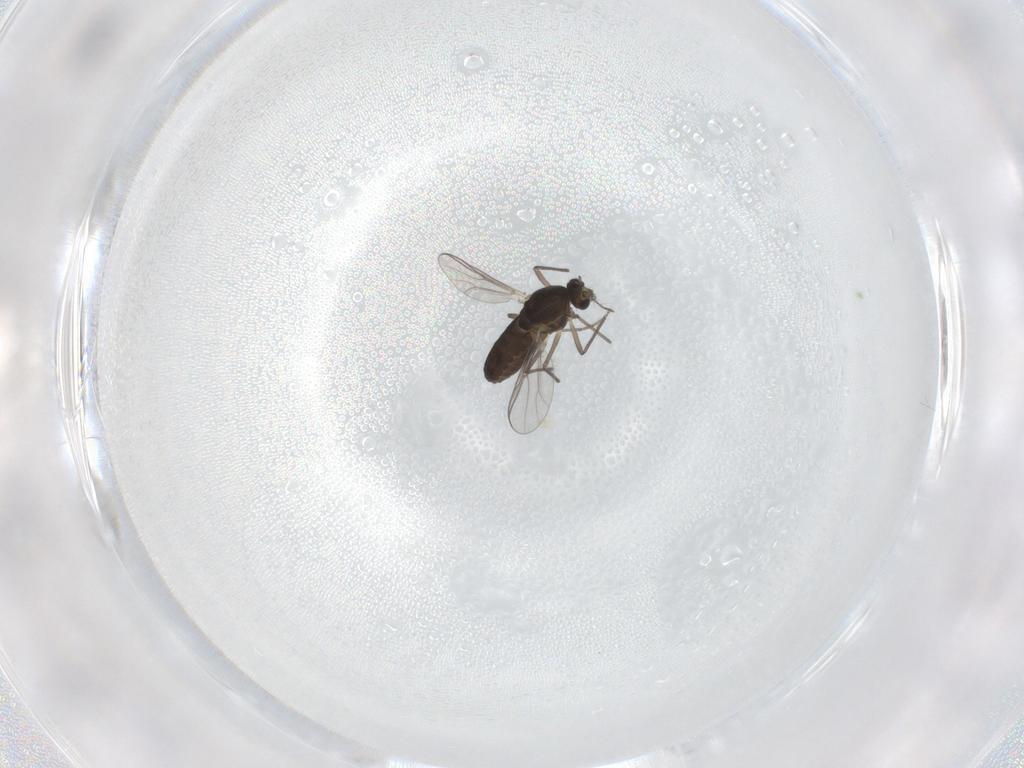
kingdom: Animalia
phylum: Arthropoda
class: Insecta
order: Diptera
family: Chironomidae
